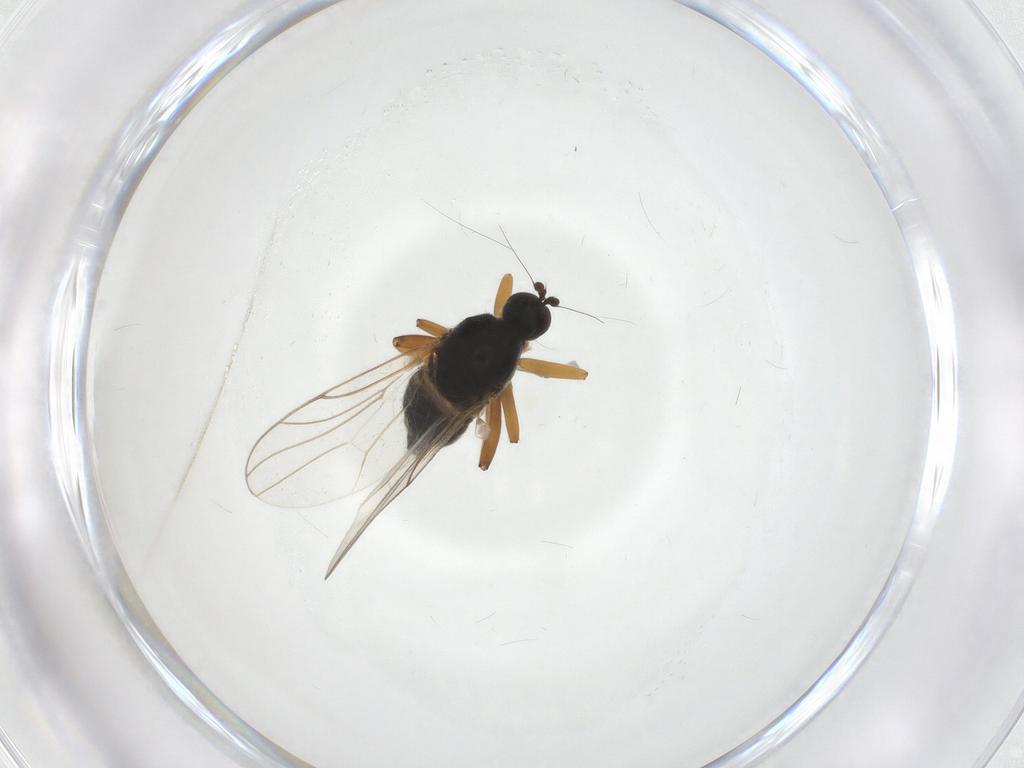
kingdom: Animalia
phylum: Arthropoda
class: Insecta
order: Diptera
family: Hybotidae
